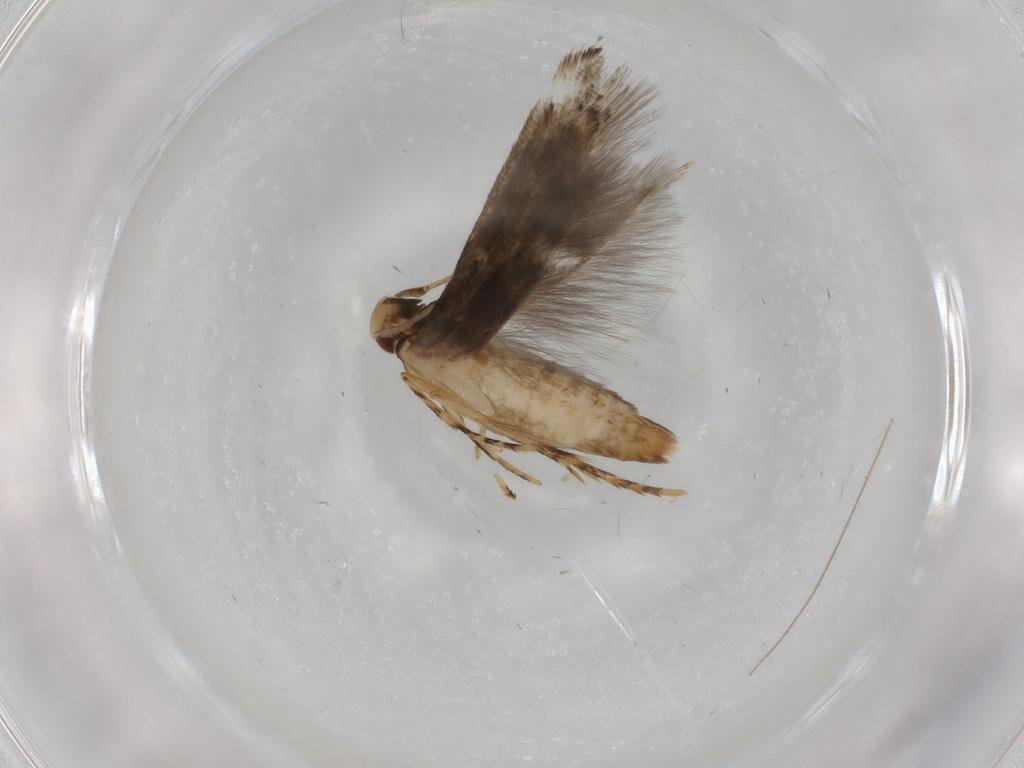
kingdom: Animalia
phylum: Arthropoda
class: Insecta
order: Lepidoptera
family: Momphidae
